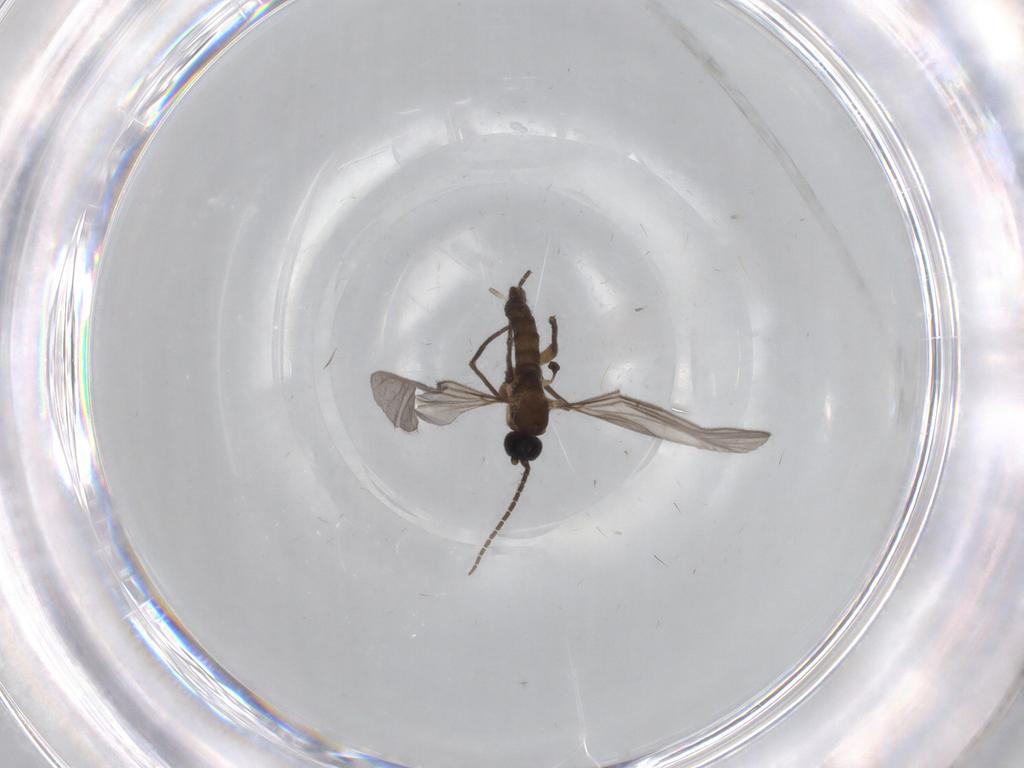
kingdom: Animalia
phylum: Arthropoda
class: Insecta
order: Diptera
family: Sciaridae
